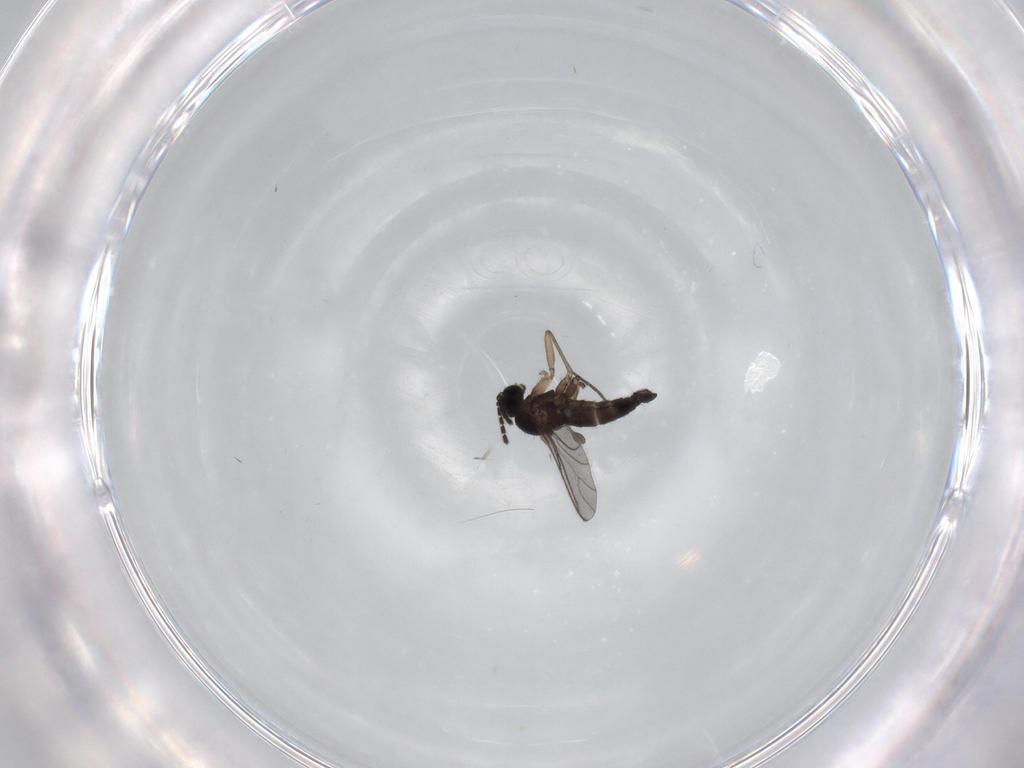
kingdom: Animalia
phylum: Arthropoda
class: Insecta
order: Diptera
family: Sciaridae
